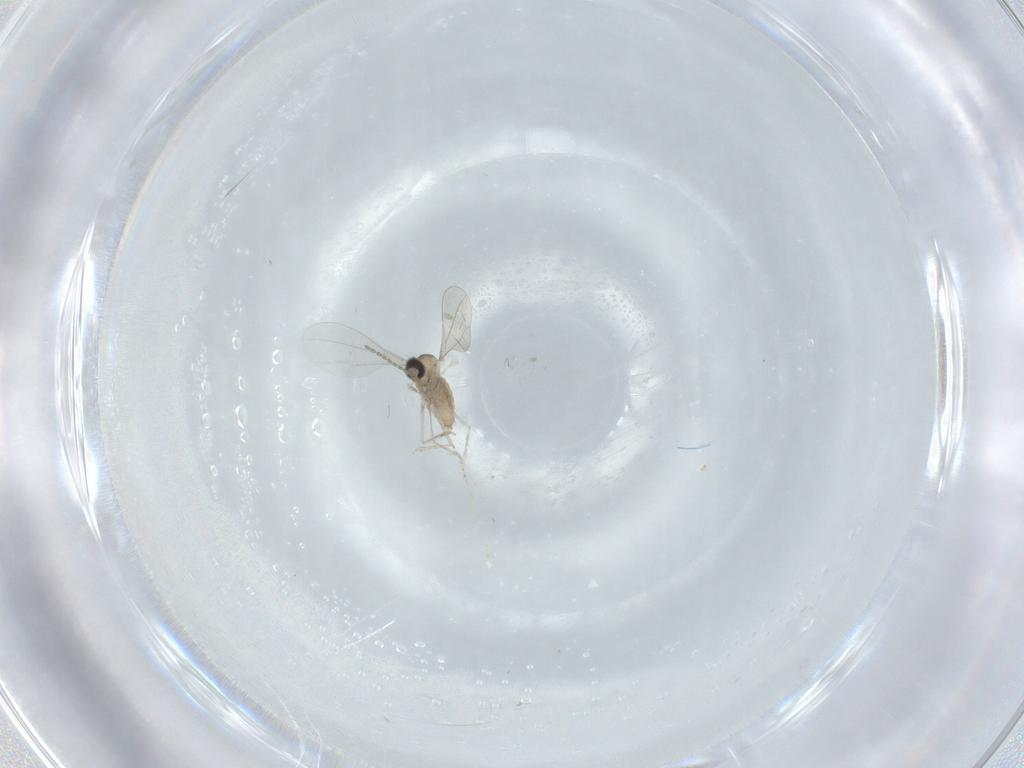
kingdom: Animalia
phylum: Arthropoda
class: Insecta
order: Diptera
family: Cecidomyiidae
